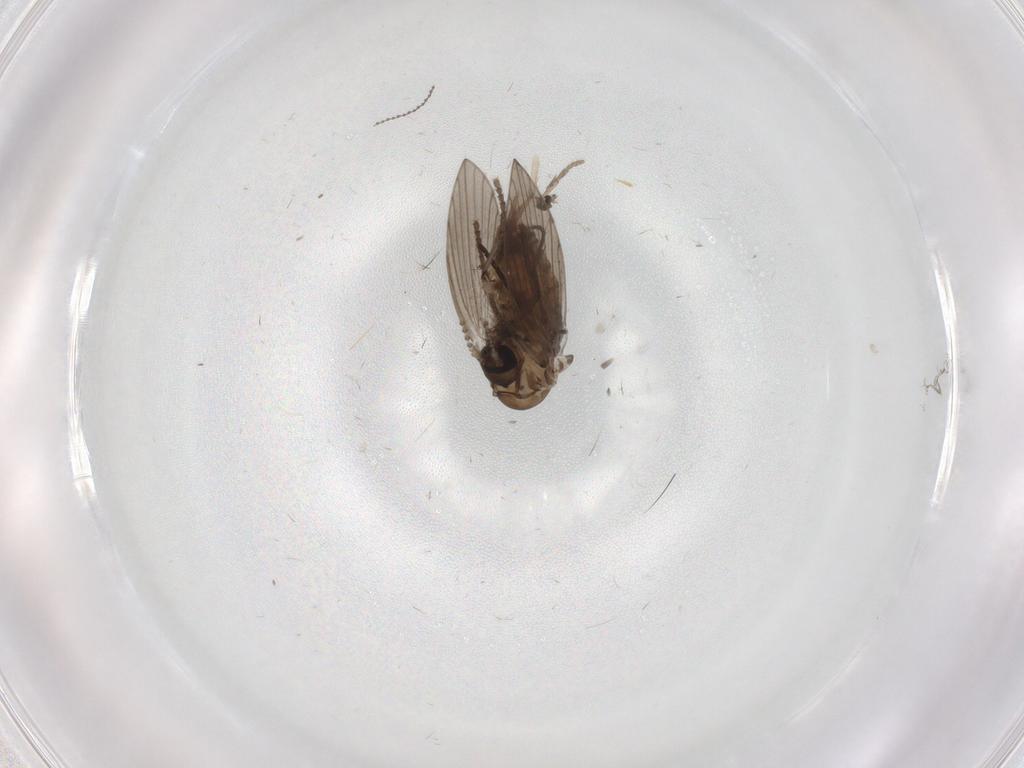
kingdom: Animalia
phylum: Arthropoda
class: Insecta
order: Diptera
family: Psychodidae
